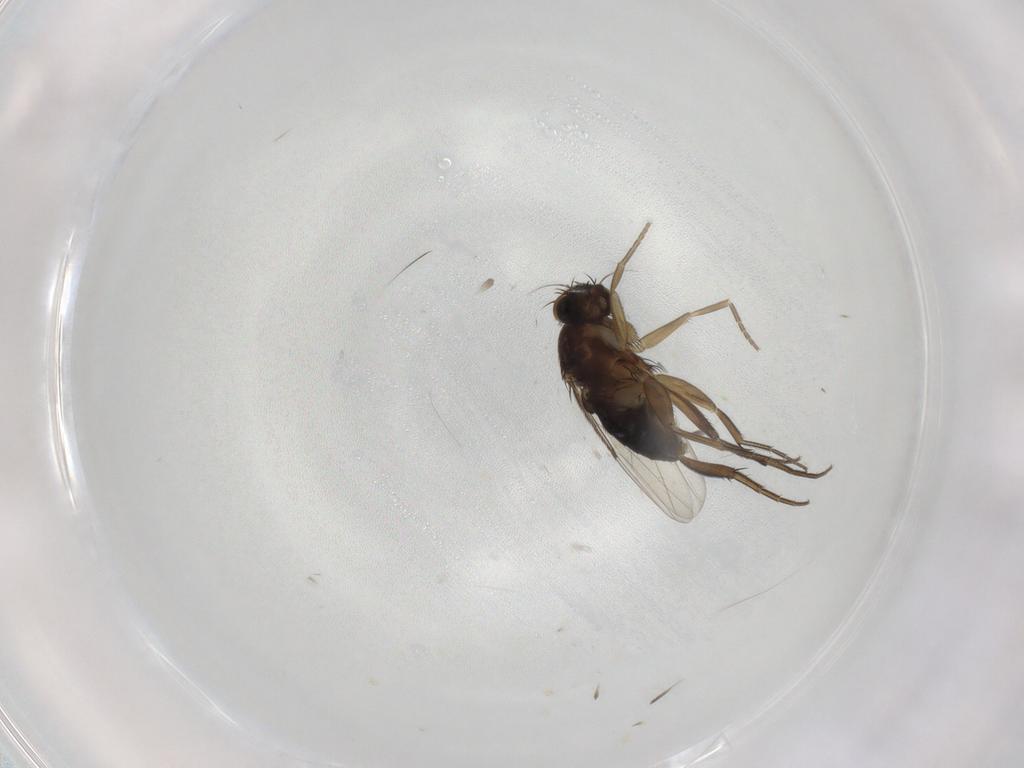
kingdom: Animalia
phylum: Arthropoda
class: Insecta
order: Diptera
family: Phoridae
